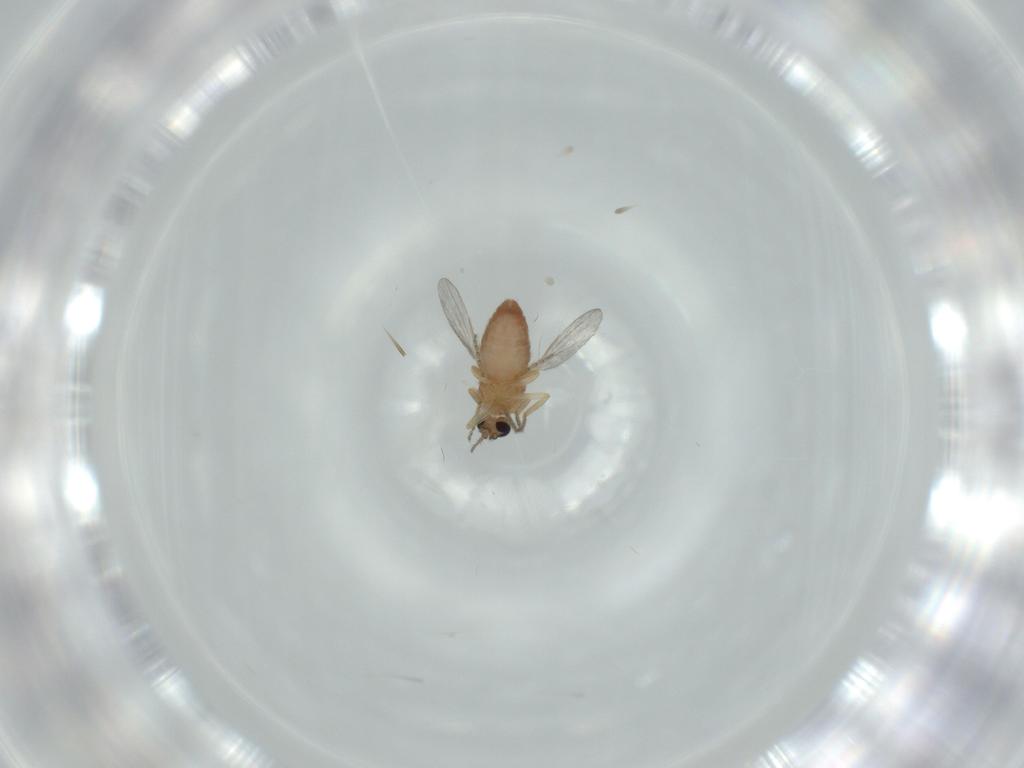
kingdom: Animalia
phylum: Arthropoda
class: Insecta
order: Diptera
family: Ceratopogonidae
